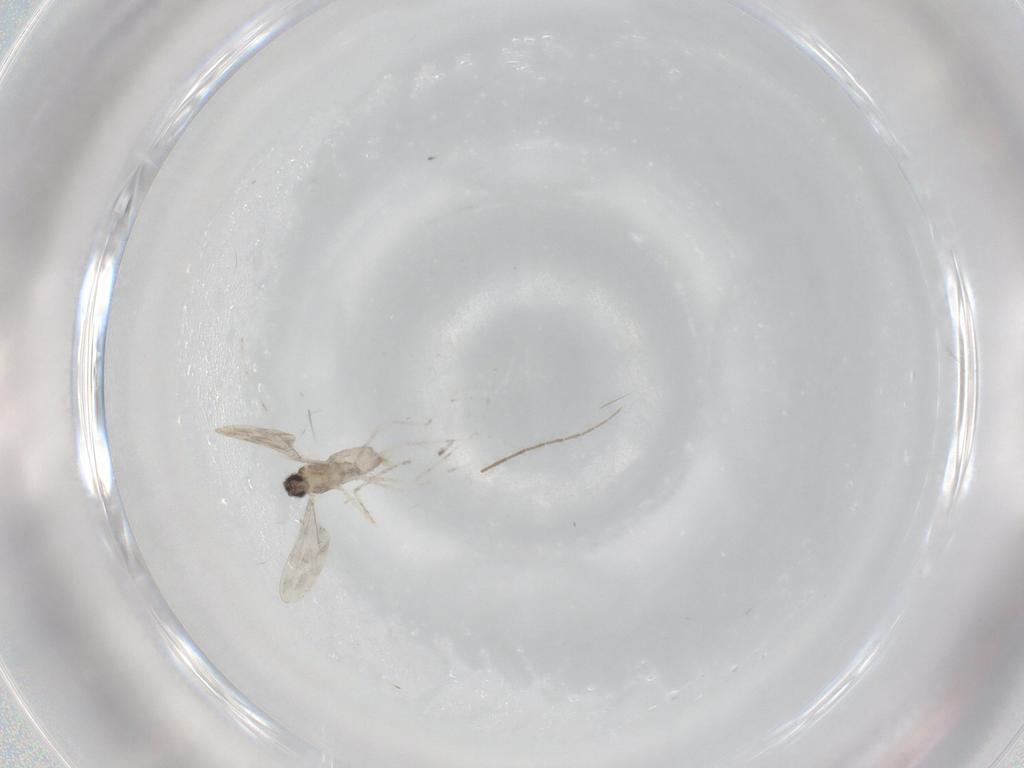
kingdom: Animalia
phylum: Arthropoda
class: Insecta
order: Diptera
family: Cecidomyiidae
